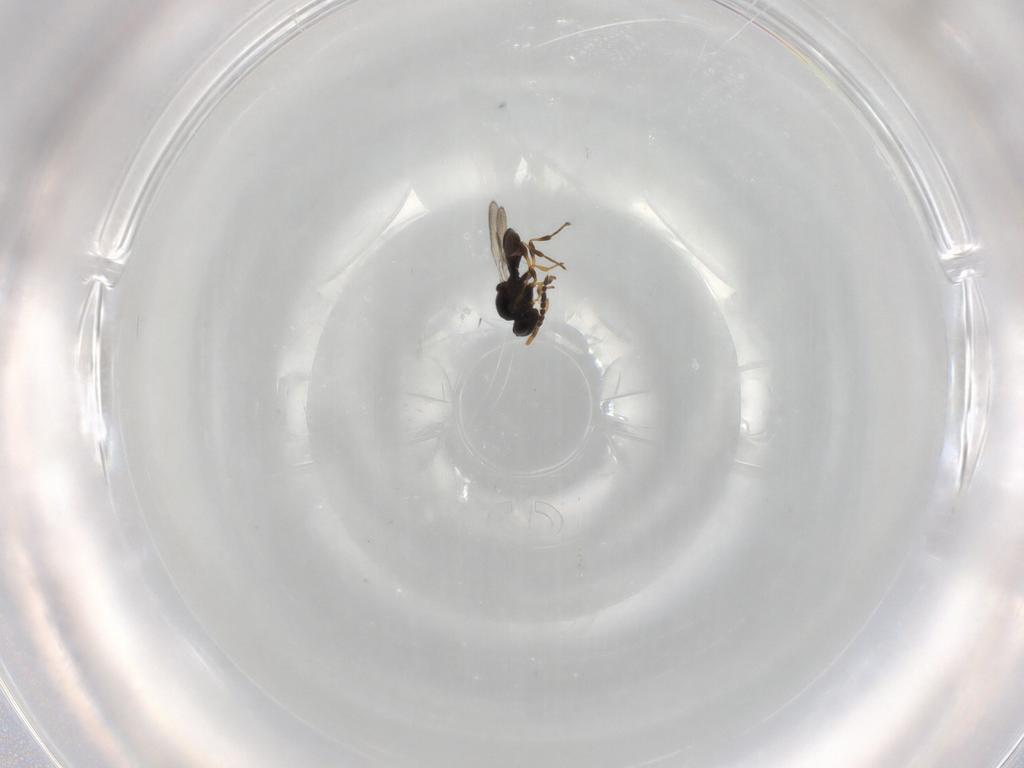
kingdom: Animalia
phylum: Arthropoda
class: Insecta
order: Hymenoptera
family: Platygastridae
